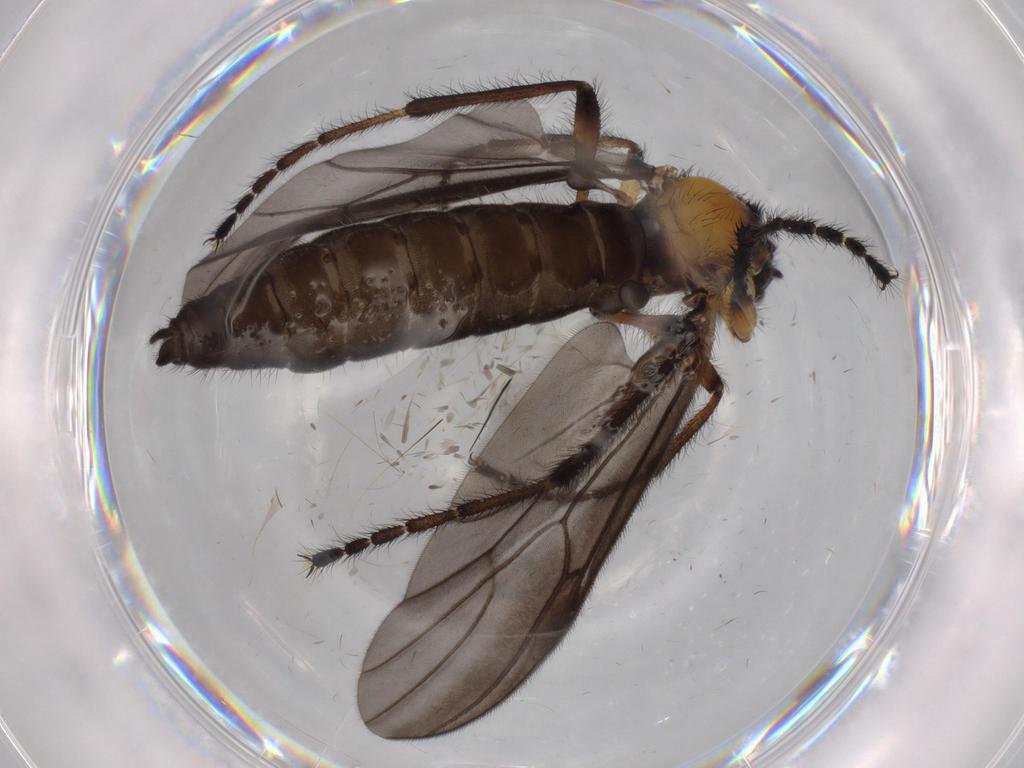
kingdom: Animalia
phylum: Arthropoda
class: Insecta
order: Diptera
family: Bibionidae
